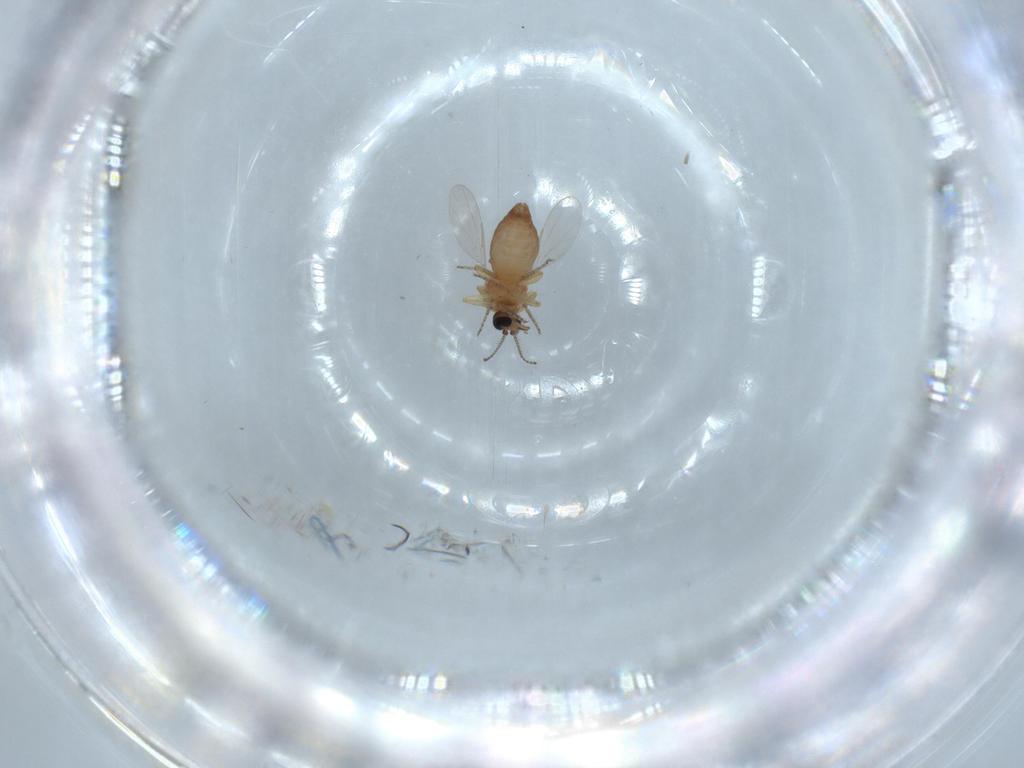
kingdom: Animalia
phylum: Arthropoda
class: Insecta
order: Diptera
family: Ceratopogonidae
